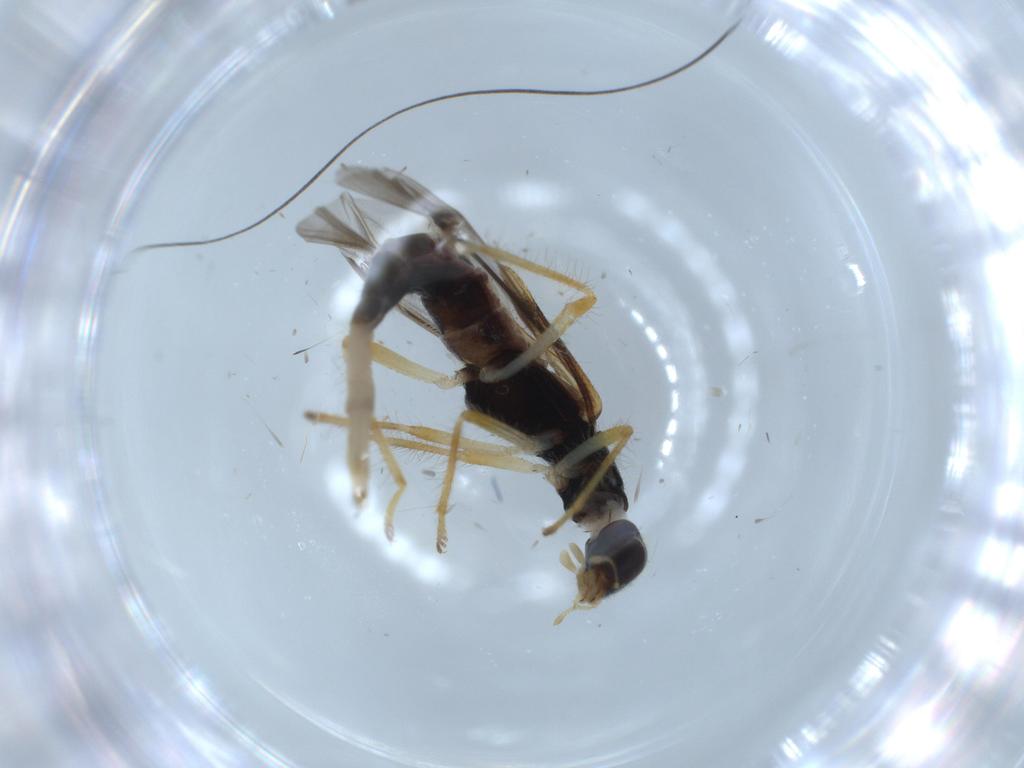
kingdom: Animalia
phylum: Arthropoda
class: Insecta
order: Coleoptera
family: Cleridae
